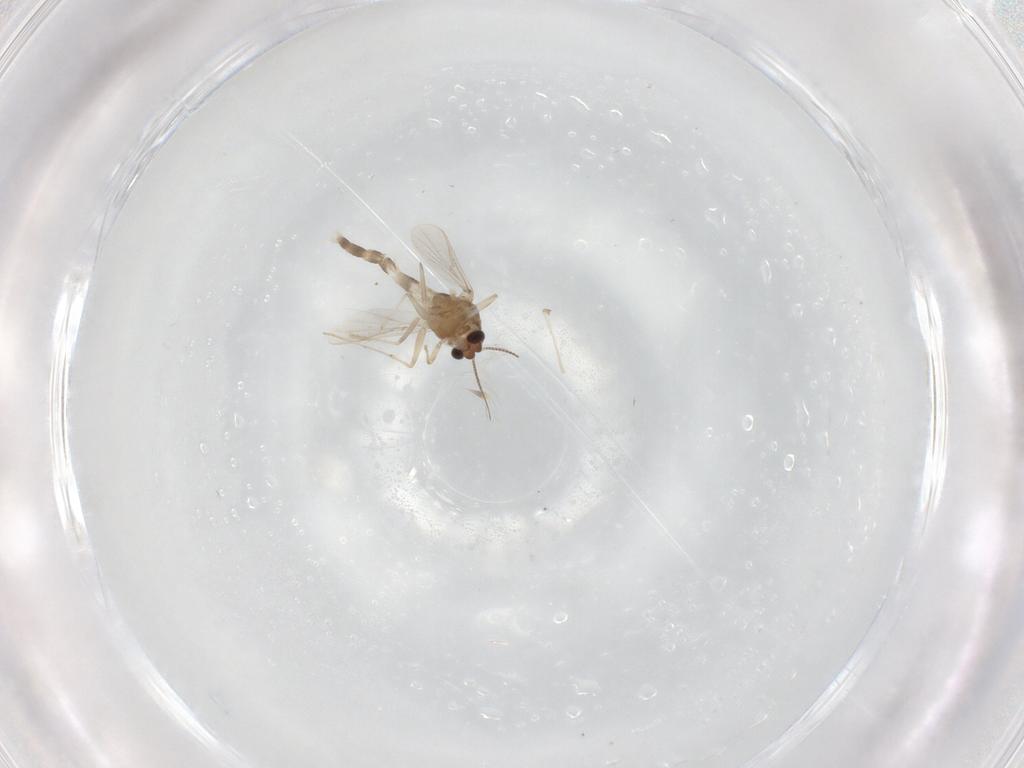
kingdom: Animalia
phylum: Arthropoda
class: Insecta
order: Diptera
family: Chironomidae
